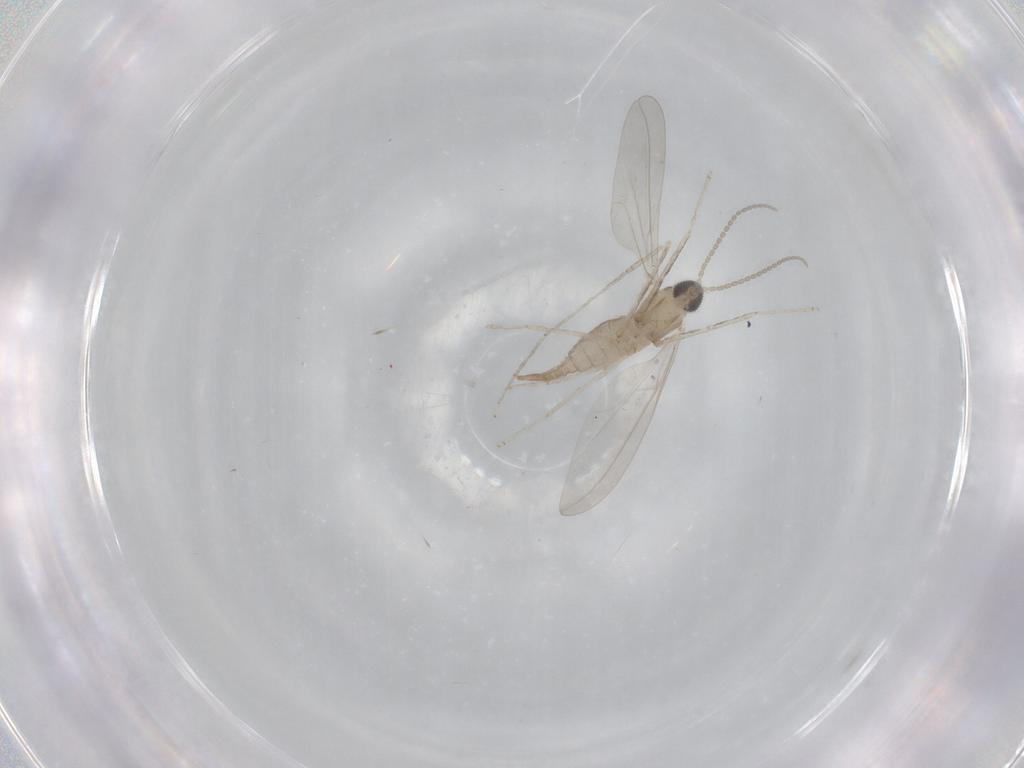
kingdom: Animalia
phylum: Arthropoda
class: Insecta
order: Diptera
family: Cecidomyiidae
